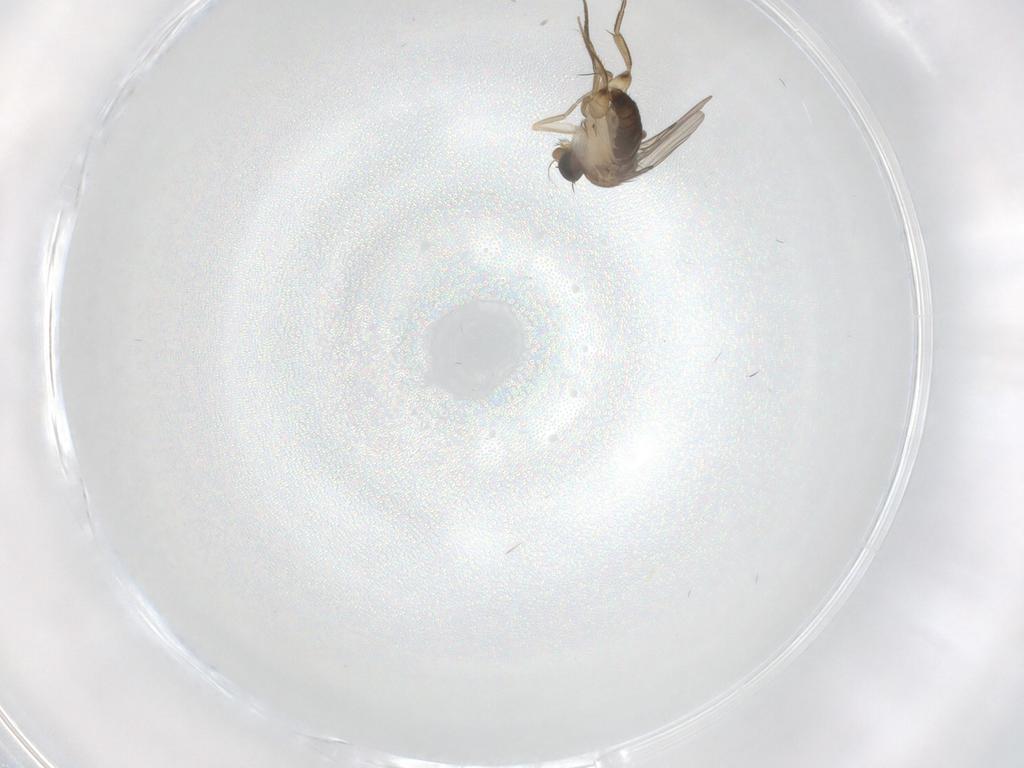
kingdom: Animalia
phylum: Arthropoda
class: Insecta
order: Diptera
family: Phoridae
